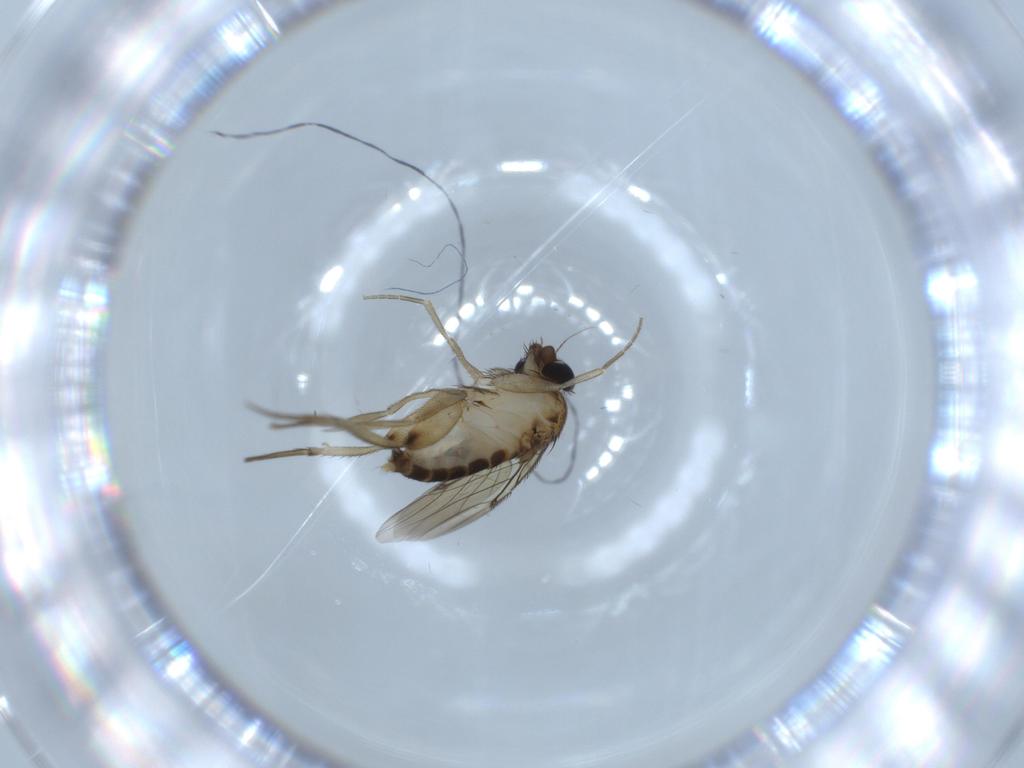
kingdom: Animalia
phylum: Arthropoda
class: Insecta
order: Diptera
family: Phoridae
